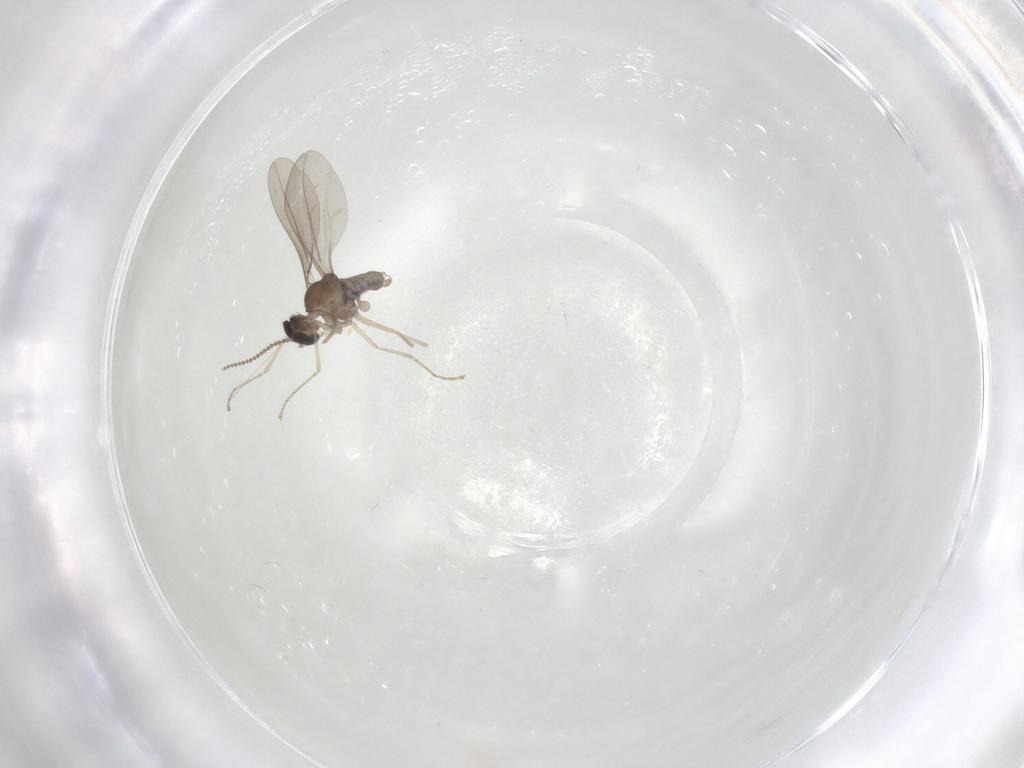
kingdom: Animalia
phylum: Arthropoda
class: Insecta
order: Diptera
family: Cecidomyiidae
